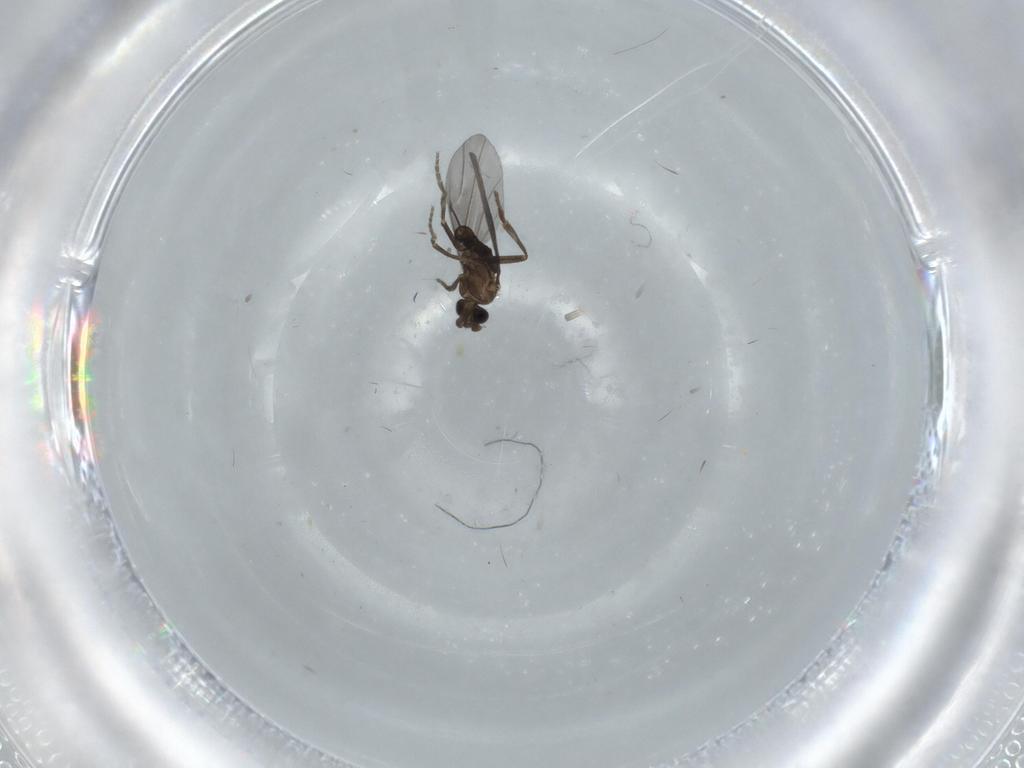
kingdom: Animalia
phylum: Arthropoda
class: Insecta
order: Diptera
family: Phoridae
